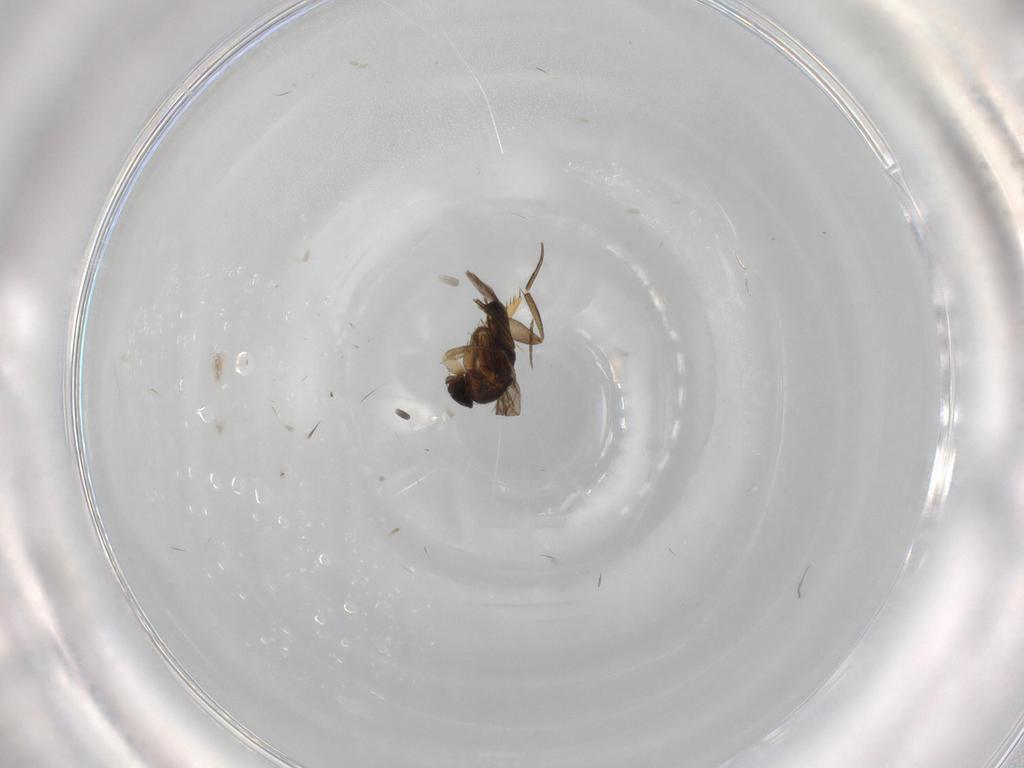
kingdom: Animalia
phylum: Arthropoda
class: Insecta
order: Diptera
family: Phoridae
